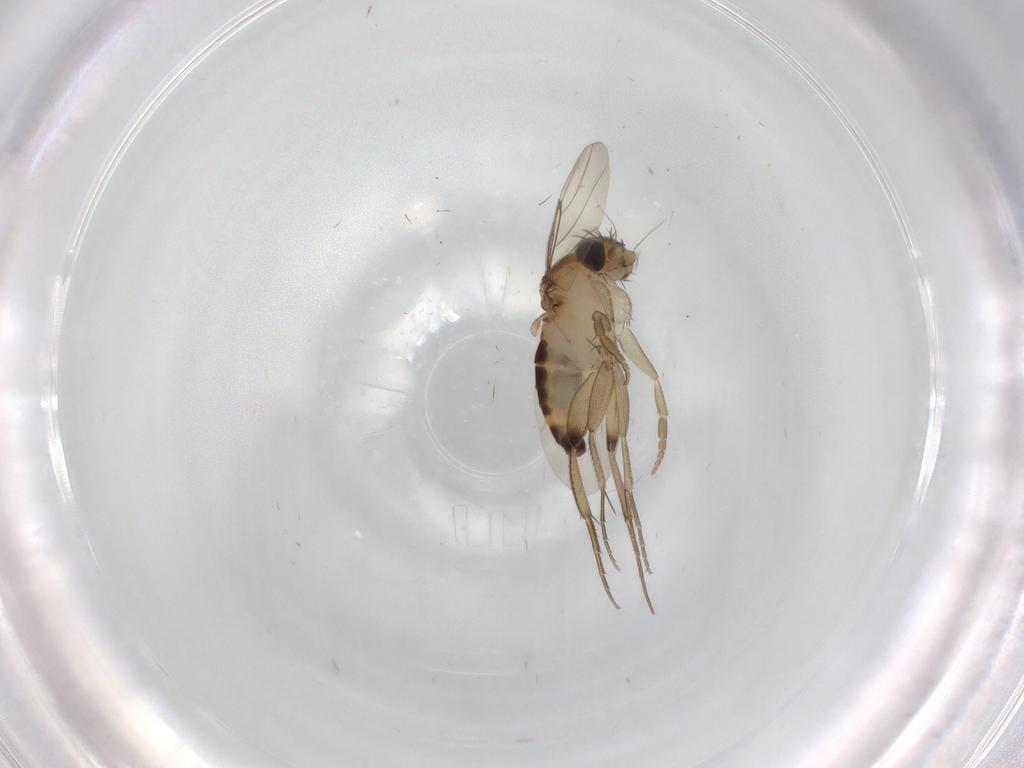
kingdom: Animalia
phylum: Arthropoda
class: Insecta
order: Diptera
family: Phoridae
